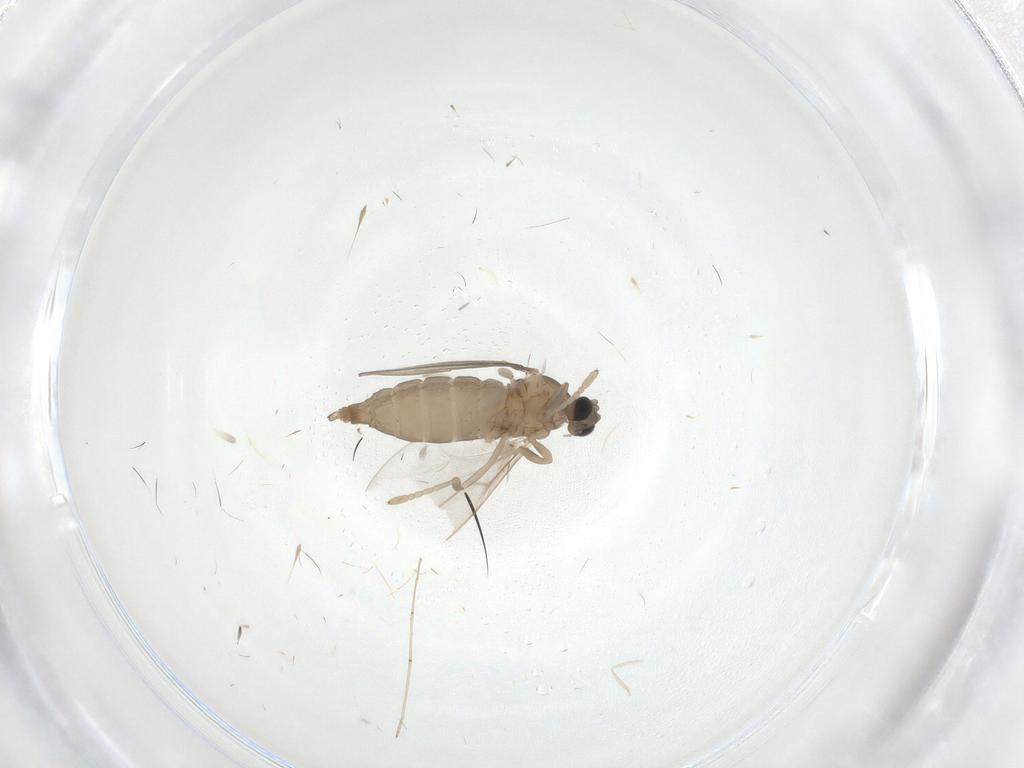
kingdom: Animalia
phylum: Arthropoda
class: Insecta
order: Diptera
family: Cecidomyiidae
